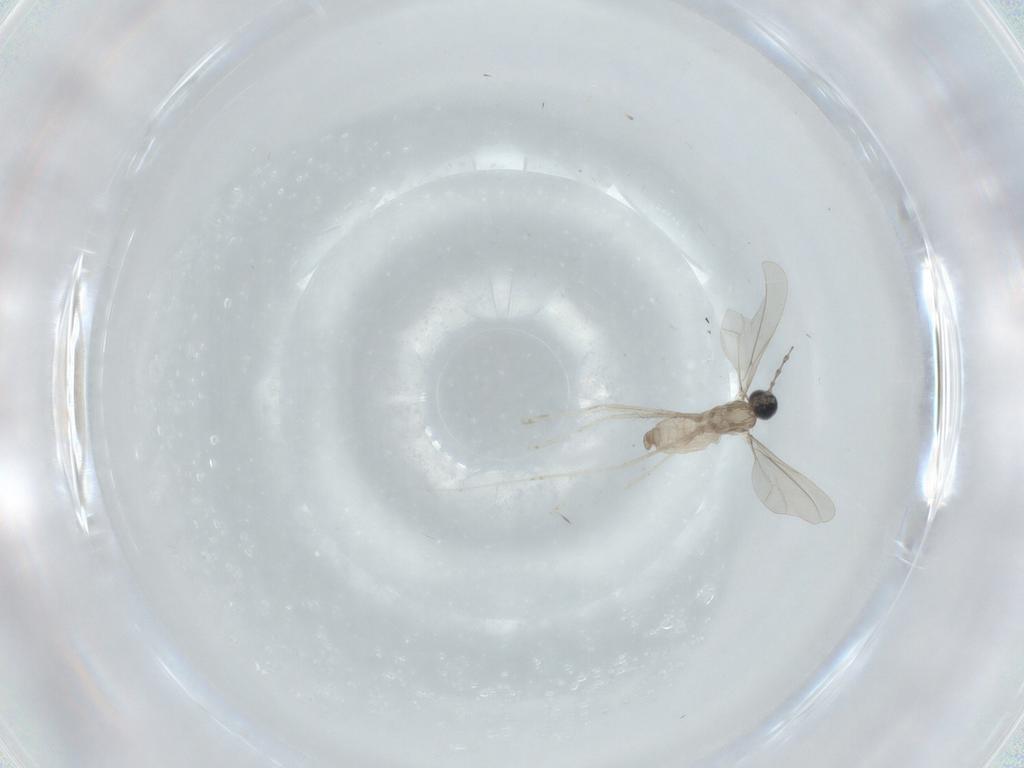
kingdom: Animalia
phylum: Arthropoda
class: Insecta
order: Diptera
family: Cecidomyiidae
